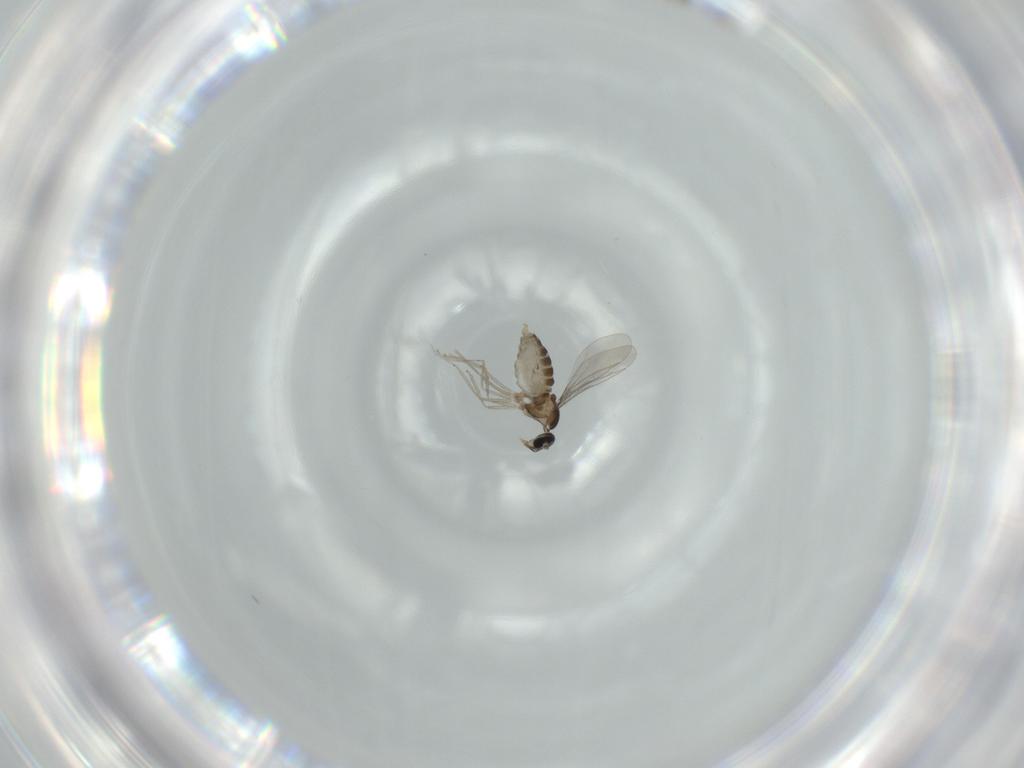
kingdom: Animalia
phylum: Arthropoda
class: Insecta
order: Diptera
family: Cecidomyiidae
